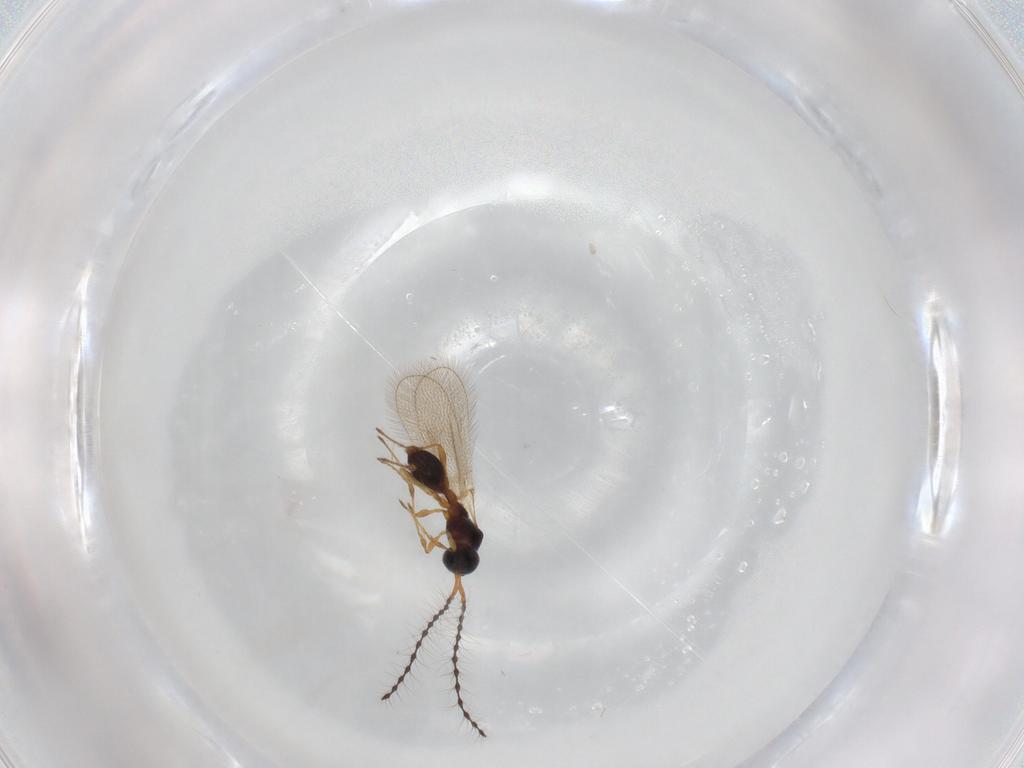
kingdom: Animalia
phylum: Arthropoda
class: Insecta
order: Hymenoptera
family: Diapriidae
